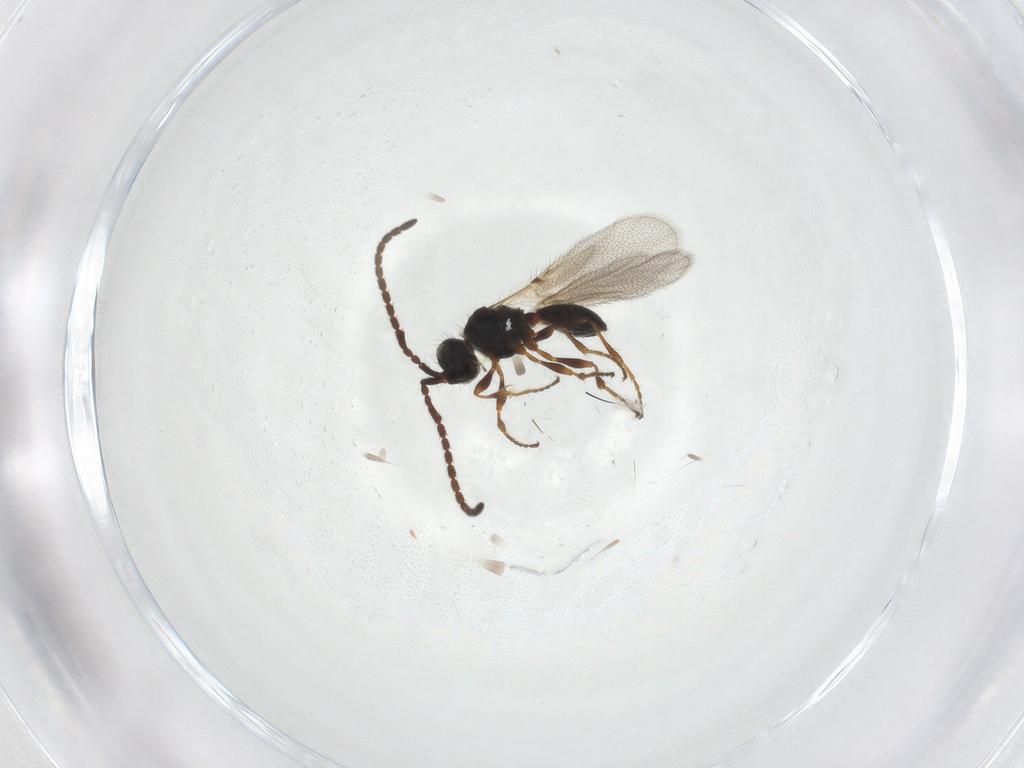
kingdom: Animalia
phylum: Arthropoda
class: Insecta
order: Hymenoptera
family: Diapriidae
